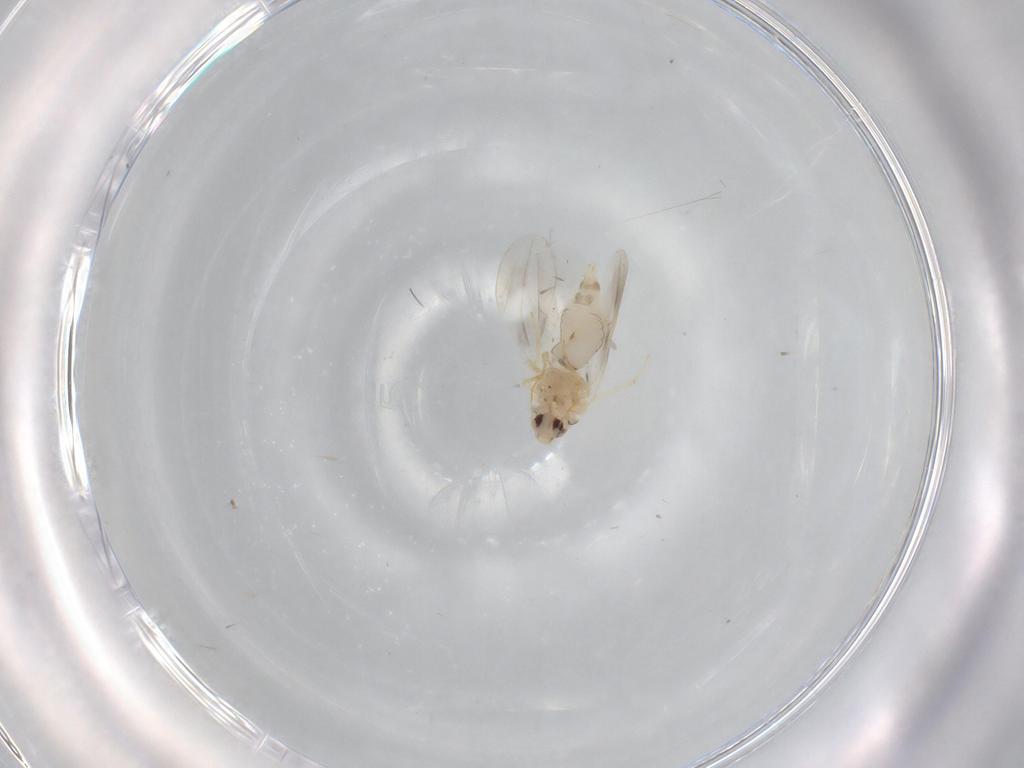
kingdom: Animalia
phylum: Arthropoda
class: Insecta
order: Hemiptera
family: Aleyrodidae
